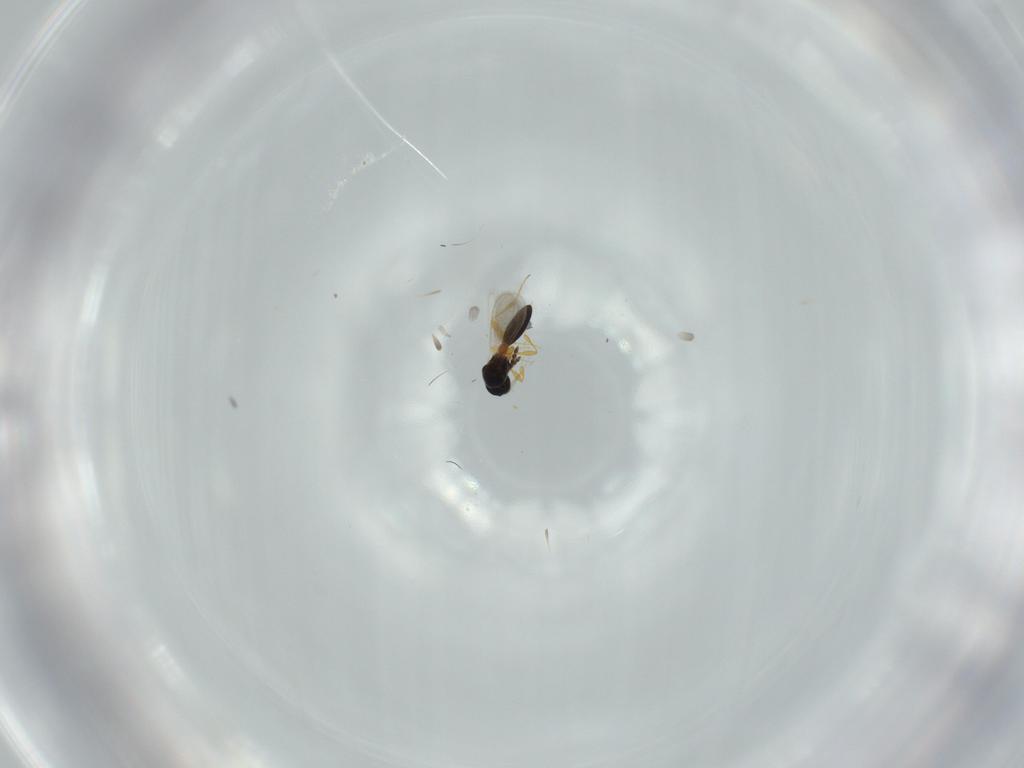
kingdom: Animalia
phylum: Arthropoda
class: Insecta
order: Hymenoptera
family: Platygastridae
